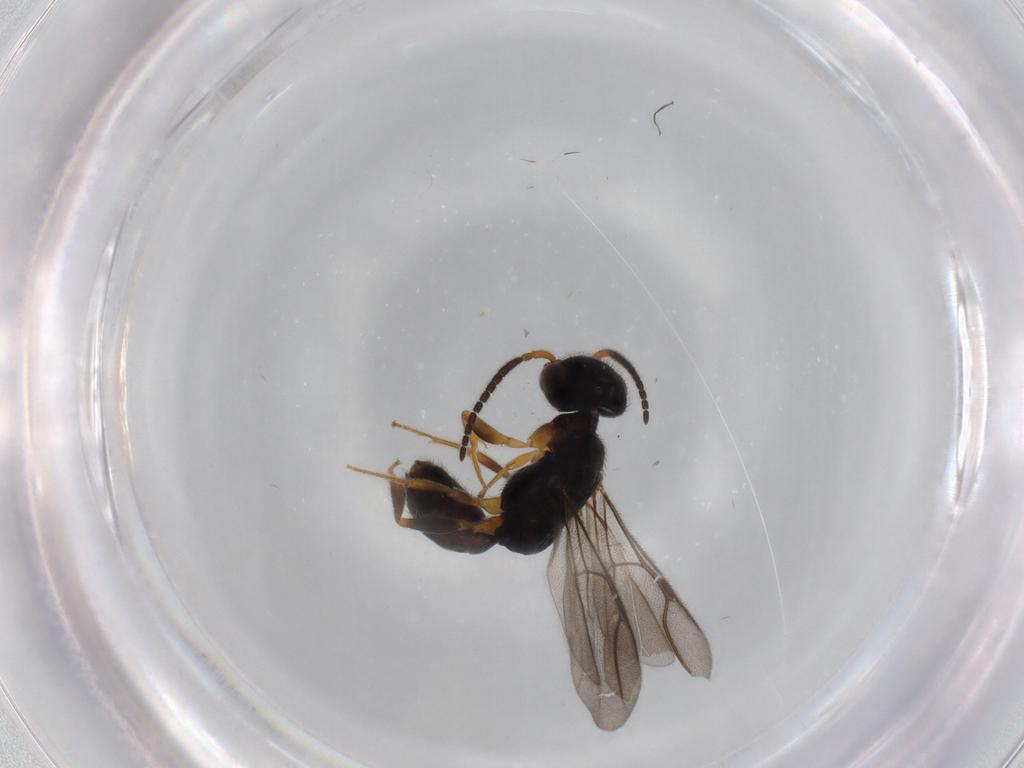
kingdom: Animalia
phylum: Arthropoda
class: Insecta
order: Hymenoptera
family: Bethylidae
